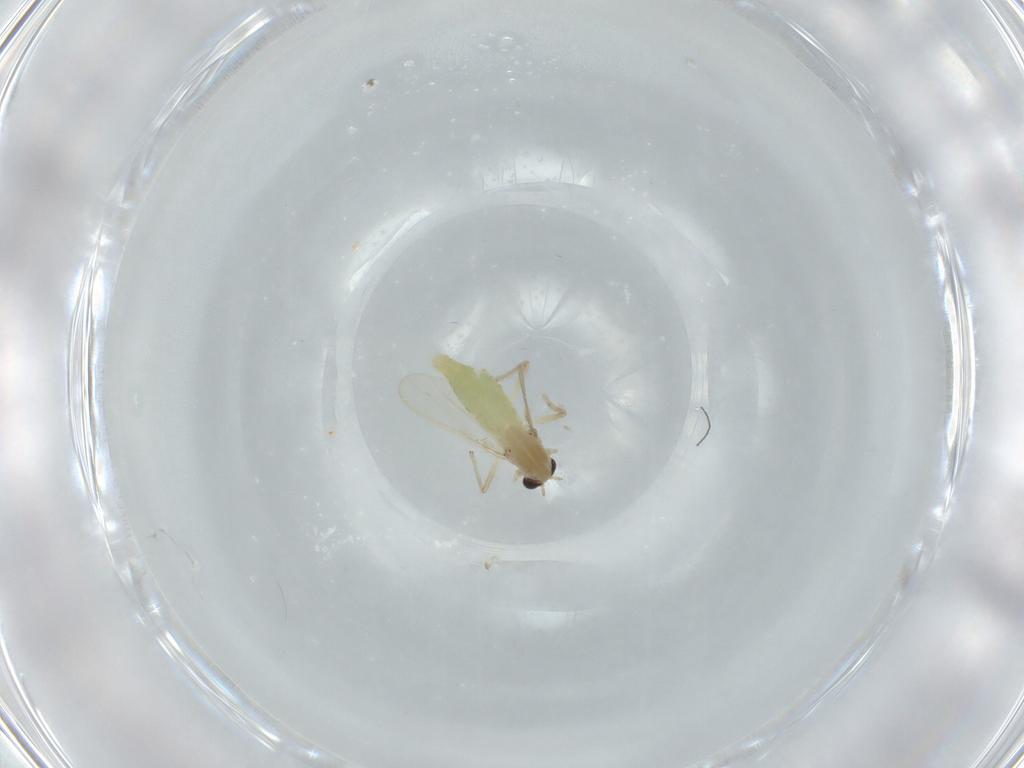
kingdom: Animalia
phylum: Arthropoda
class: Insecta
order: Diptera
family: Chironomidae
